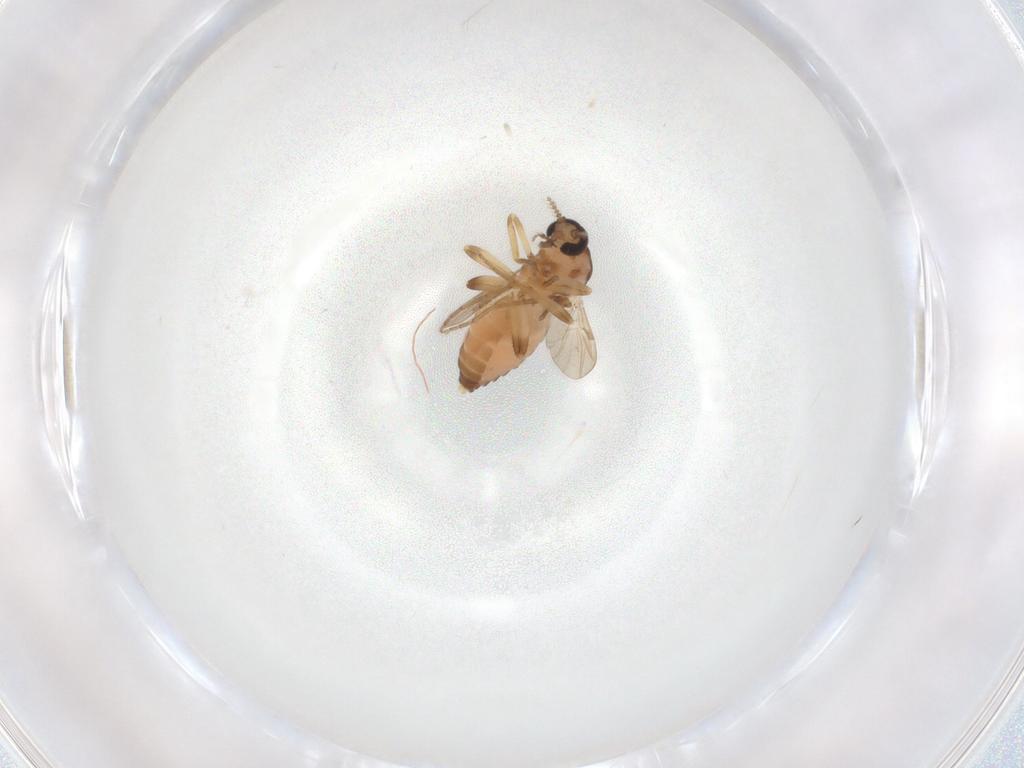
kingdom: Animalia
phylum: Arthropoda
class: Insecta
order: Diptera
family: Ceratopogonidae
